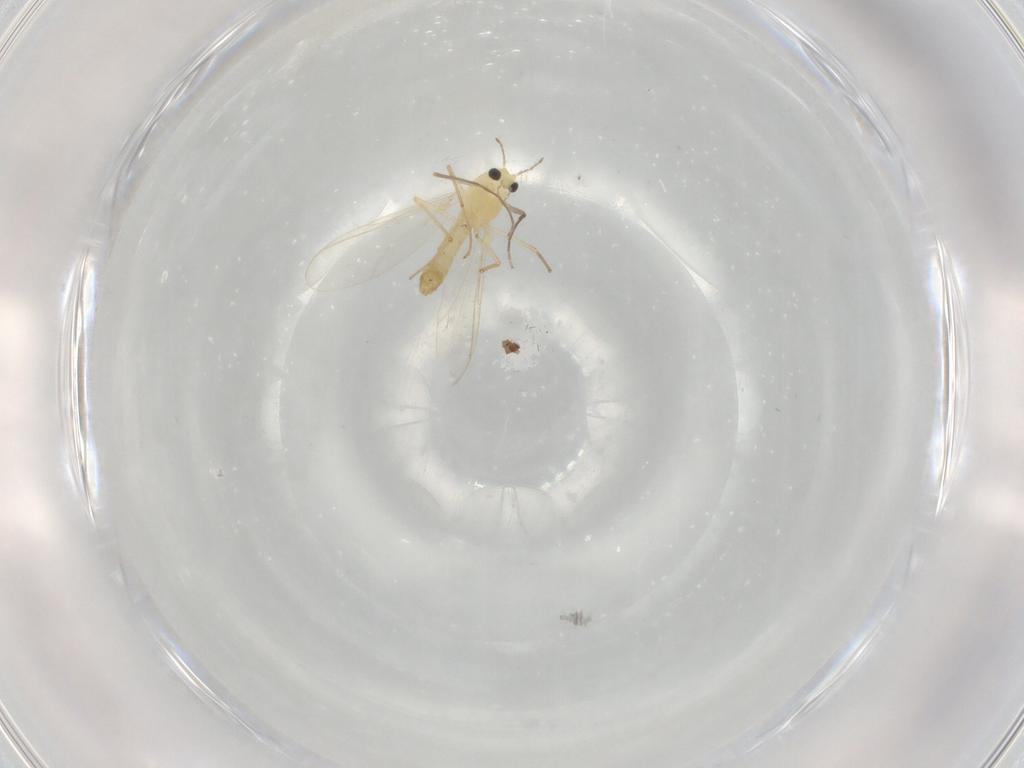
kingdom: Animalia
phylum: Arthropoda
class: Insecta
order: Diptera
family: Chironomidae
